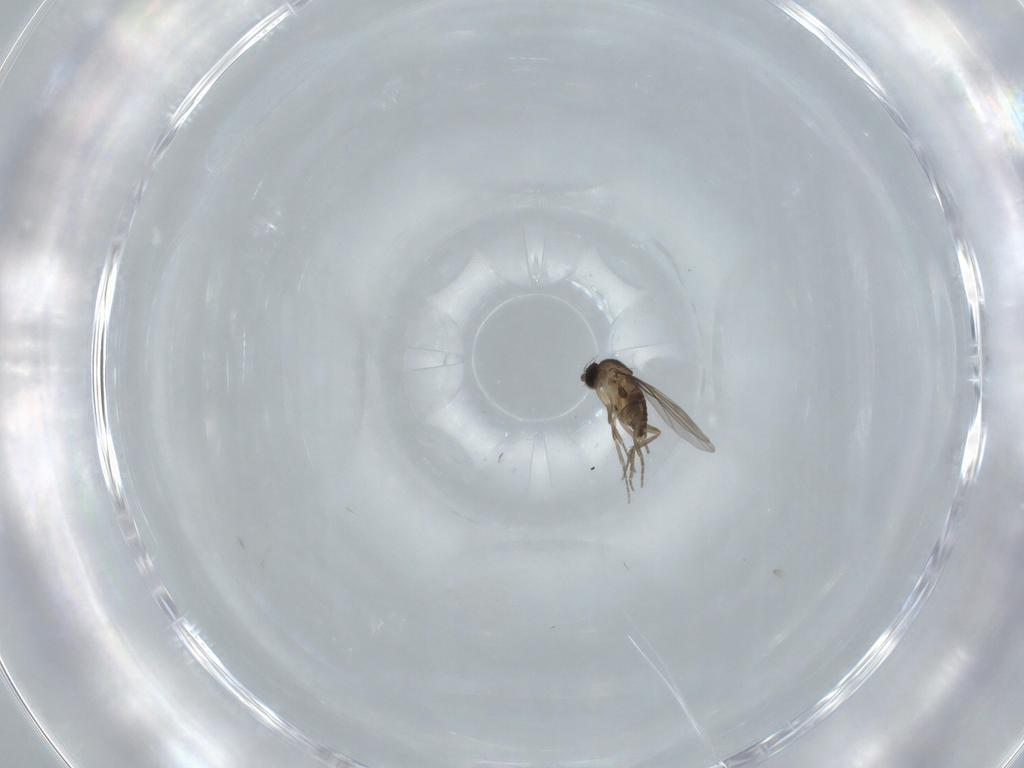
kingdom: Animalia
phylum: Arthropoda
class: Insecta
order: Diptera
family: Phoridae
